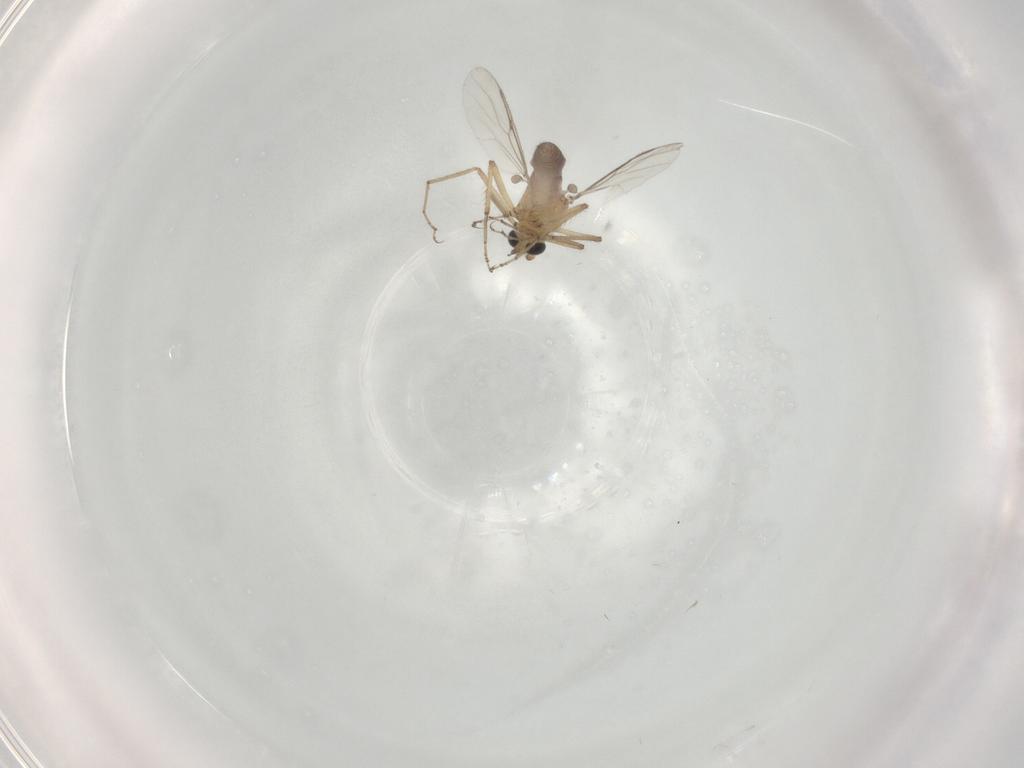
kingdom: Animalia
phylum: Arthropoda
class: Insecta
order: Diptera
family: Ceratopogonidae
